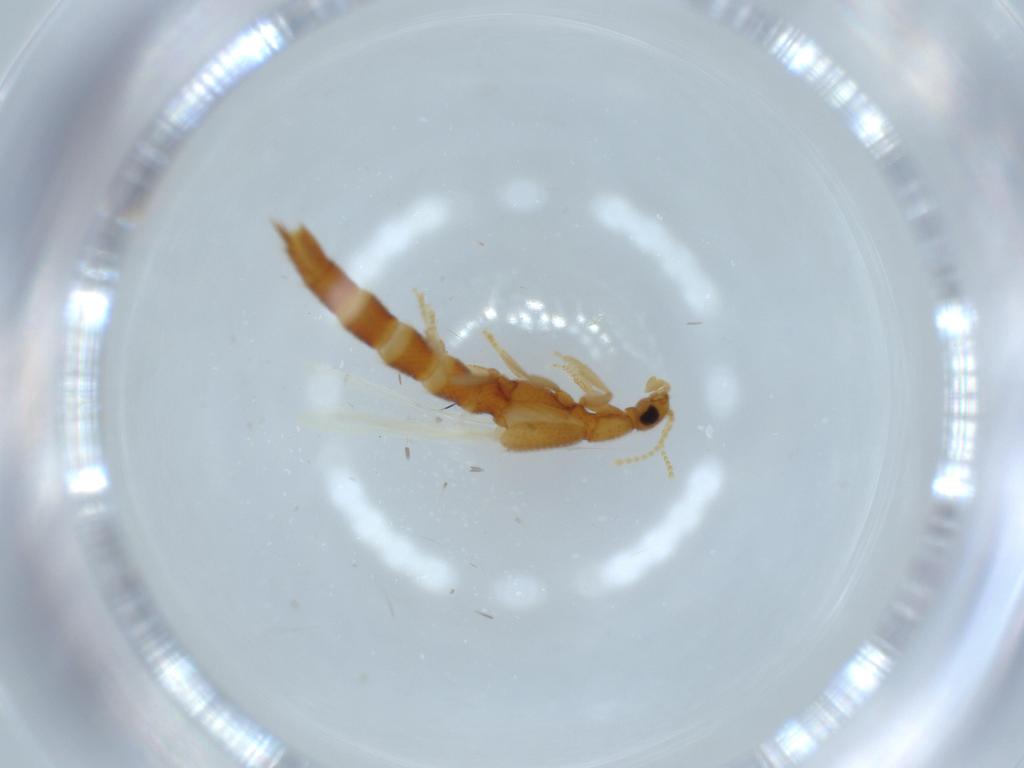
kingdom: Animalia
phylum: Arthropoda
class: Insecta
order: Coleoptera
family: Staphylinidae
